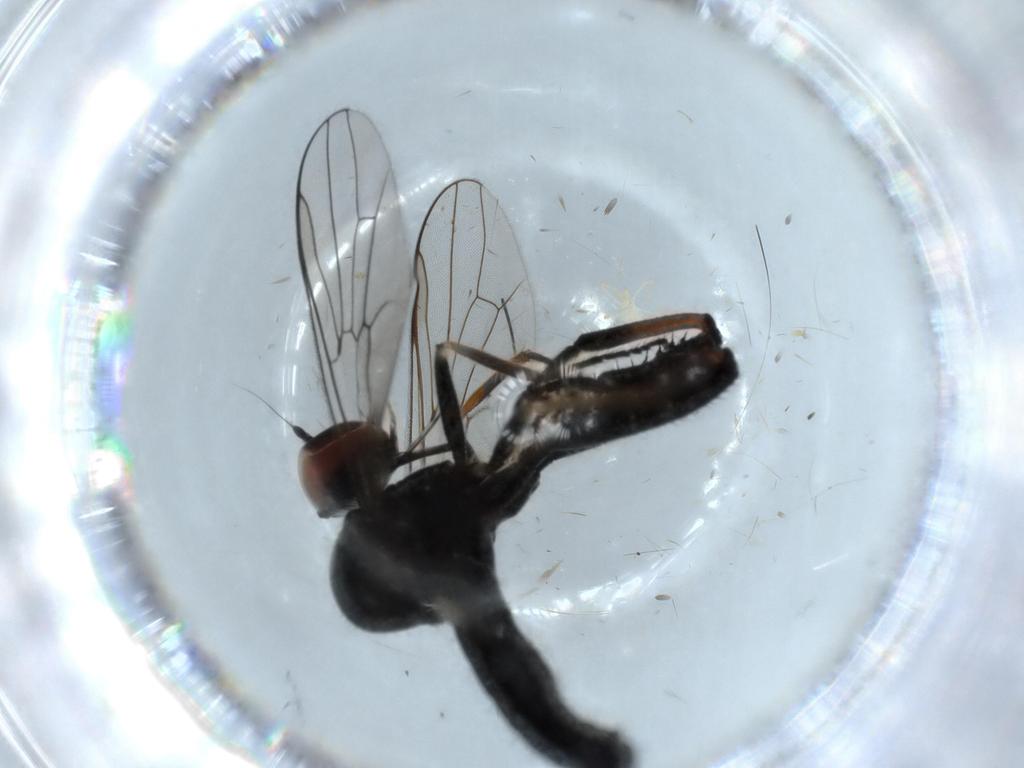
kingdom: Animalia
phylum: Arthropoda
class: Insecta
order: Diptera
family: Hybotidae
